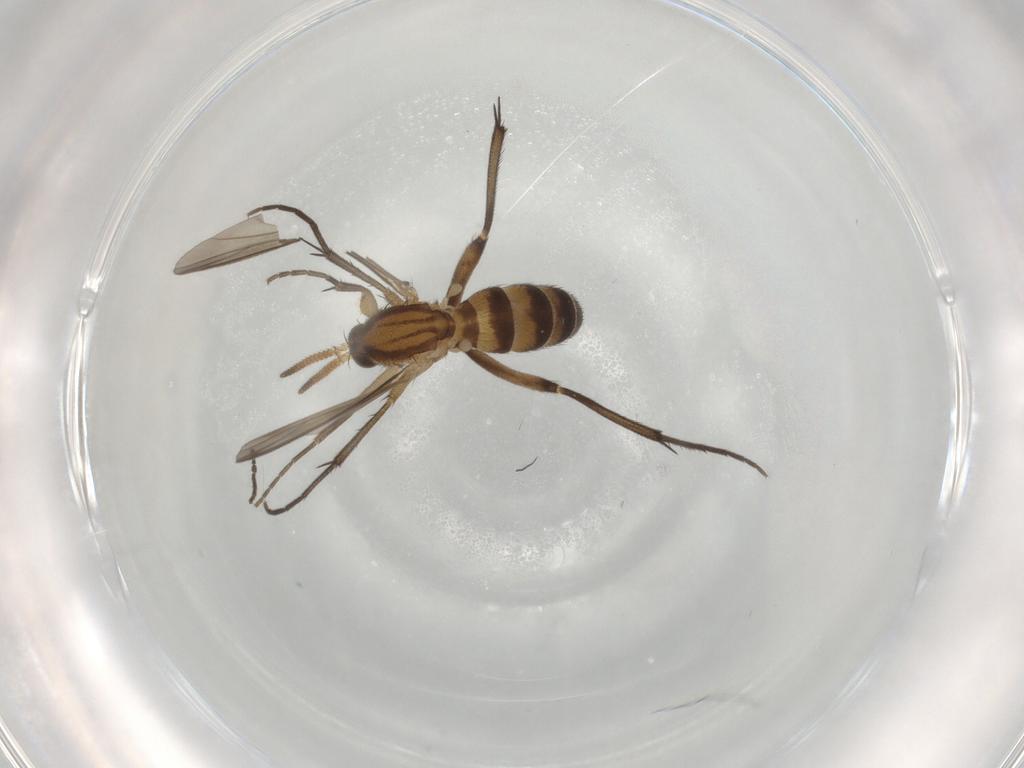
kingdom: Animalia
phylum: Arthropoda
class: Insecta
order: Diptera
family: Mycetophilidae
